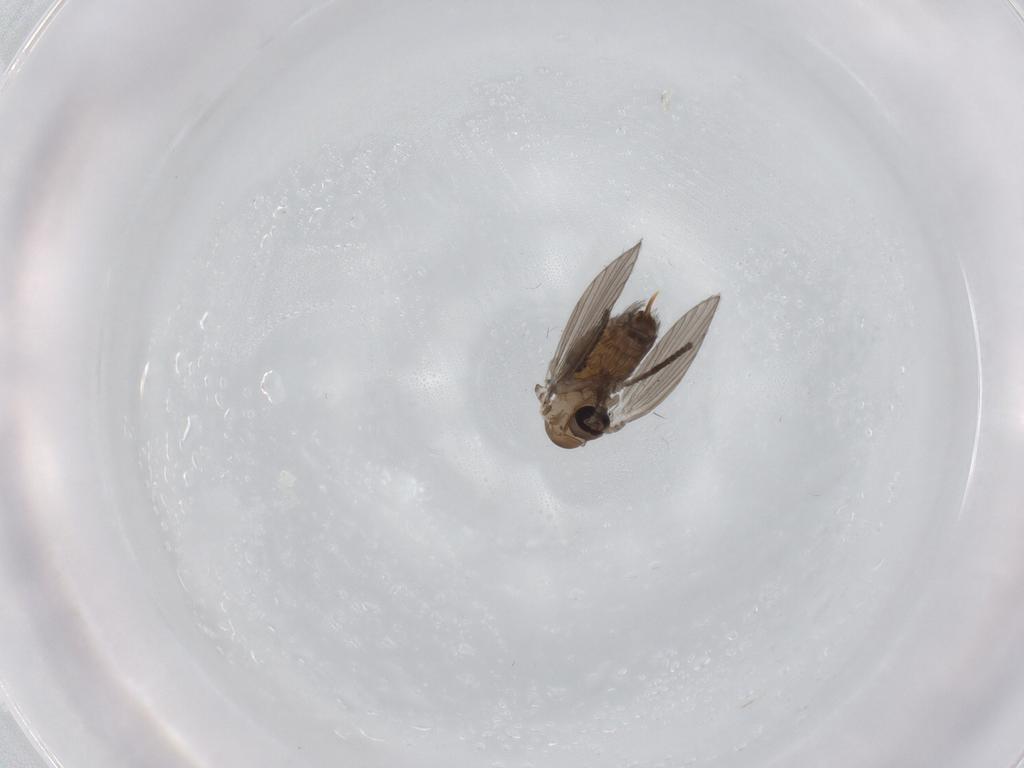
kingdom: Animalia
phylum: Arthropoda
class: Insecta
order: Diptera
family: Psychodidae
